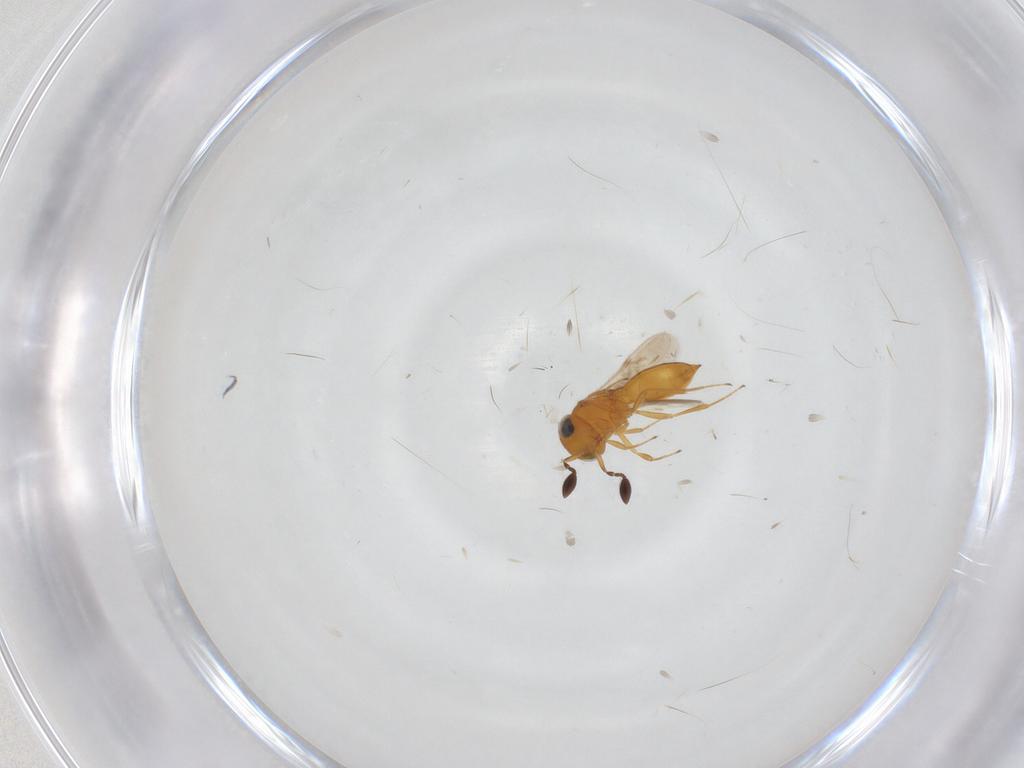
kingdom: Animalia
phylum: Arthropoda
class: Insecta
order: Hymenoptera
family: Scelionidae
